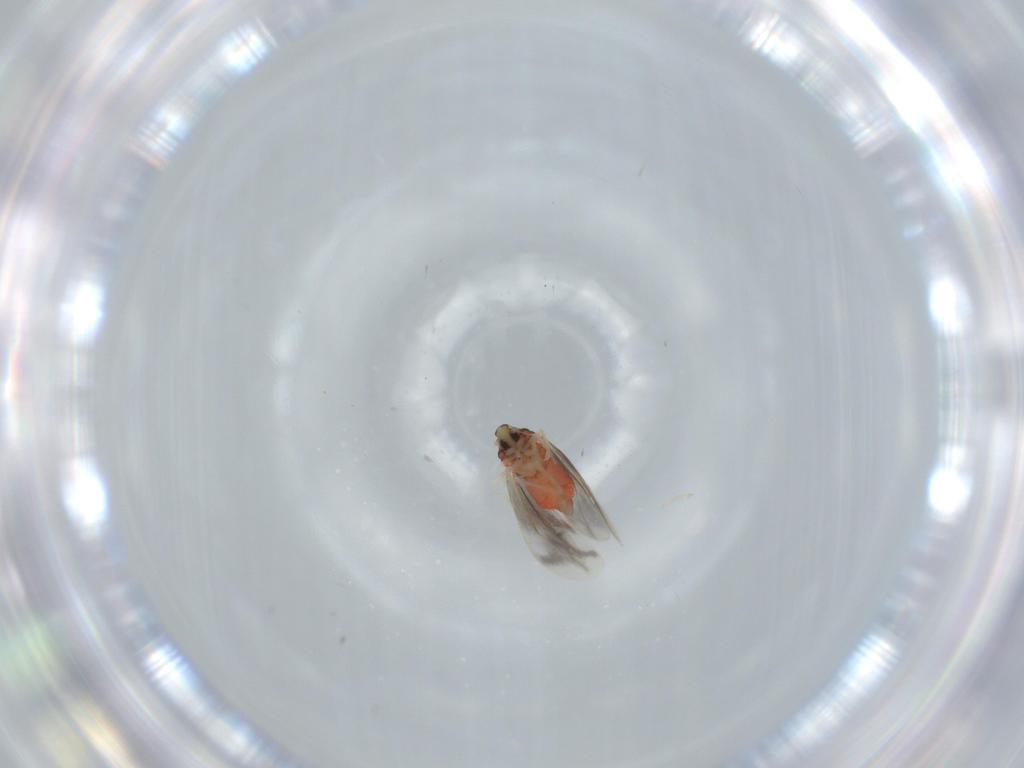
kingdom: Animalia
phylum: Arthropoda
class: Insecta
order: Hemiptera
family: Aleyrodidae
